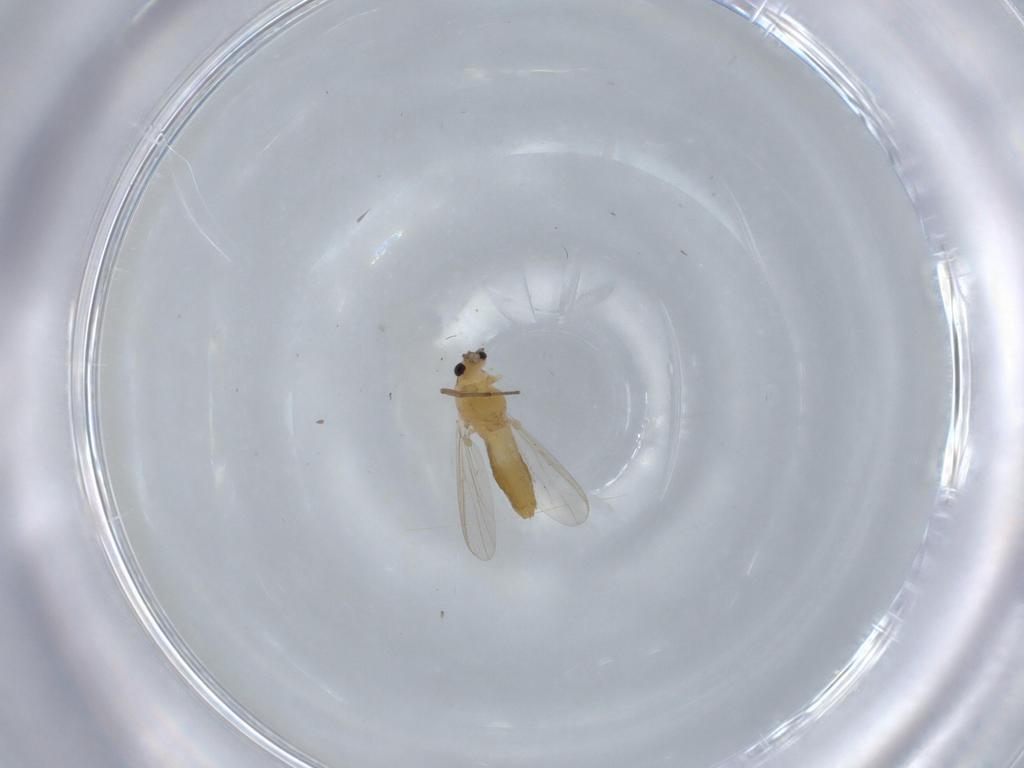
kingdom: Animalia
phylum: Arthropoda
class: Insecta
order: Diptera
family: Chironomidae
